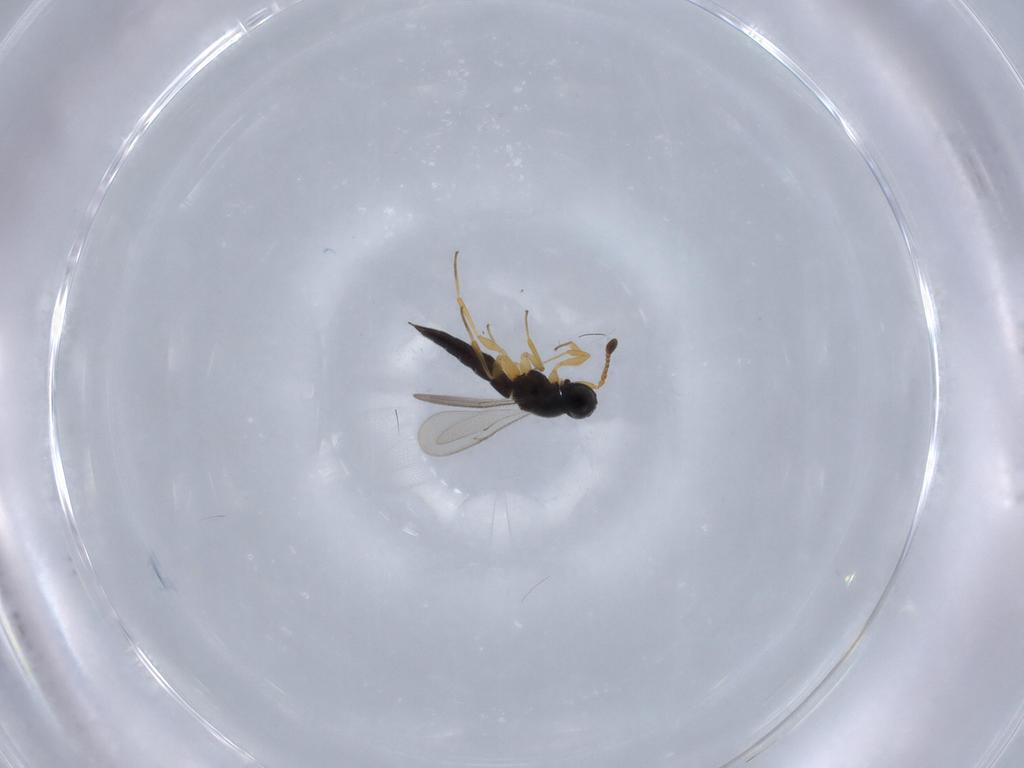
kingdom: Animalia
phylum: Arthropoda
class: Insecta
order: Hymenoptera
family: Scelionidae
